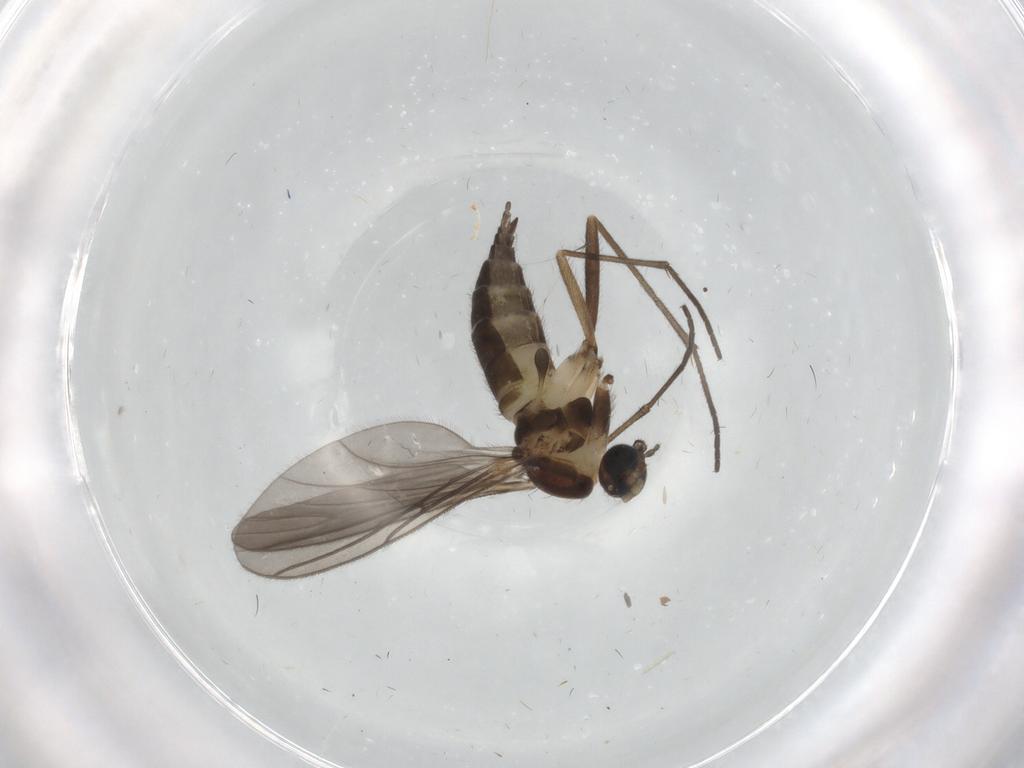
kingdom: Animalia
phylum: Arthropoda
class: Insecta
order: Diptera
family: Sciaridae
